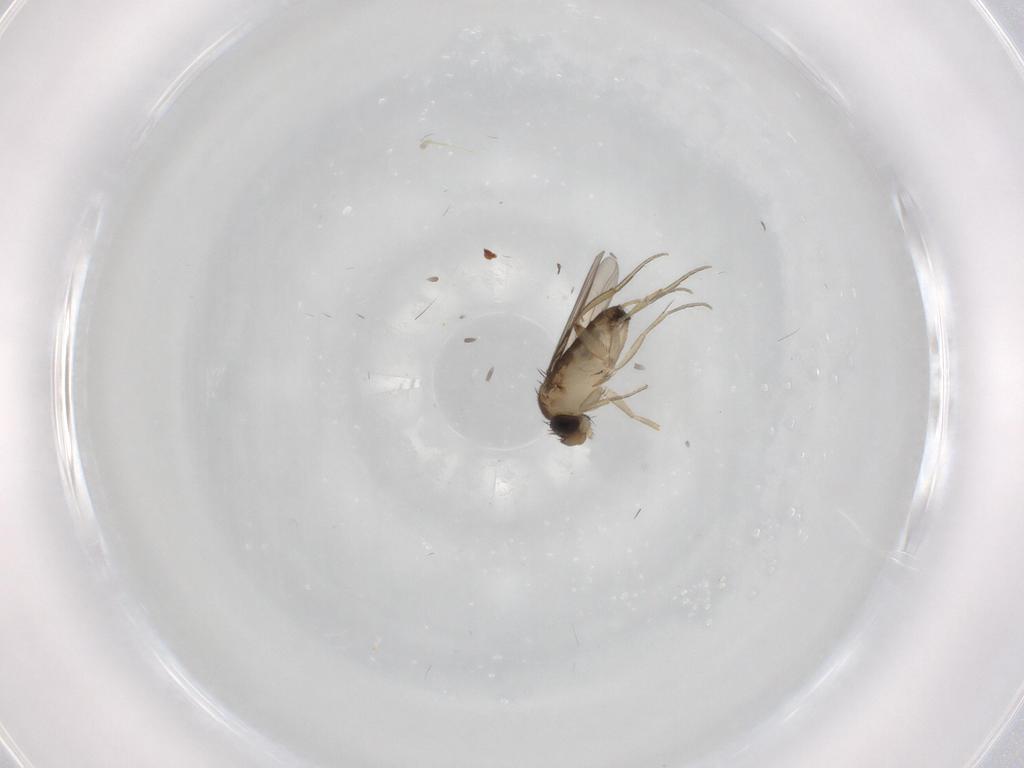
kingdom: Animalia
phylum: Arthropoda
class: Insecta
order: Diptera
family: Phoridae
